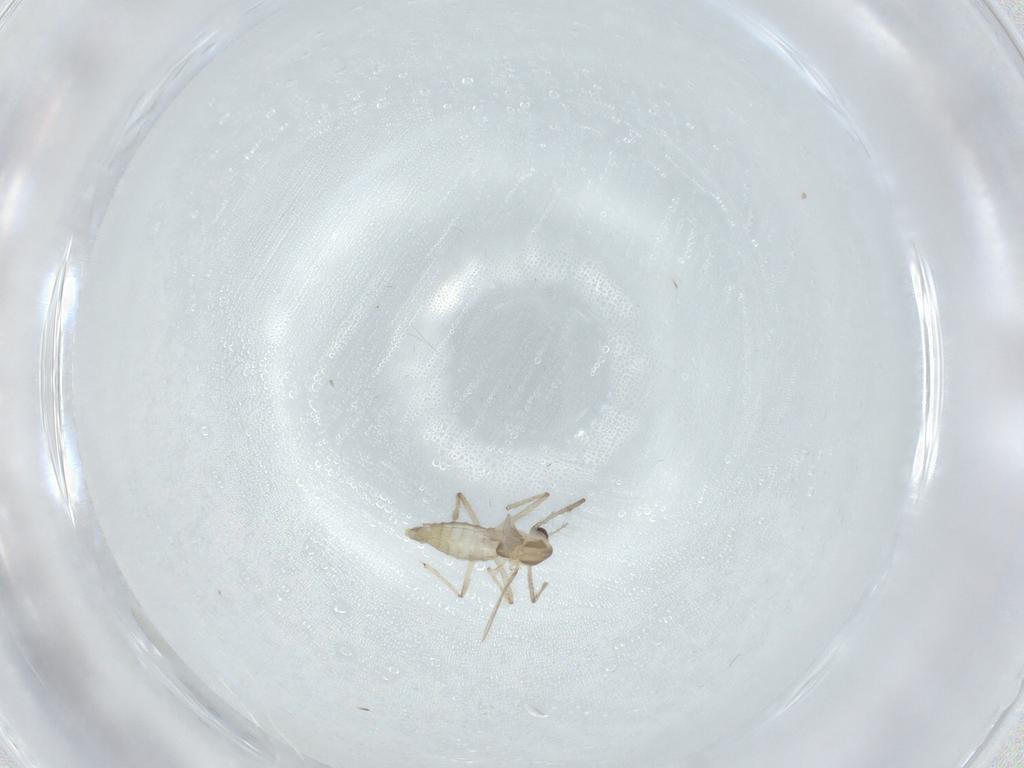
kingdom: Animalia
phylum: Arthropoda
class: Insecta
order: Diptera
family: Chironomidae
